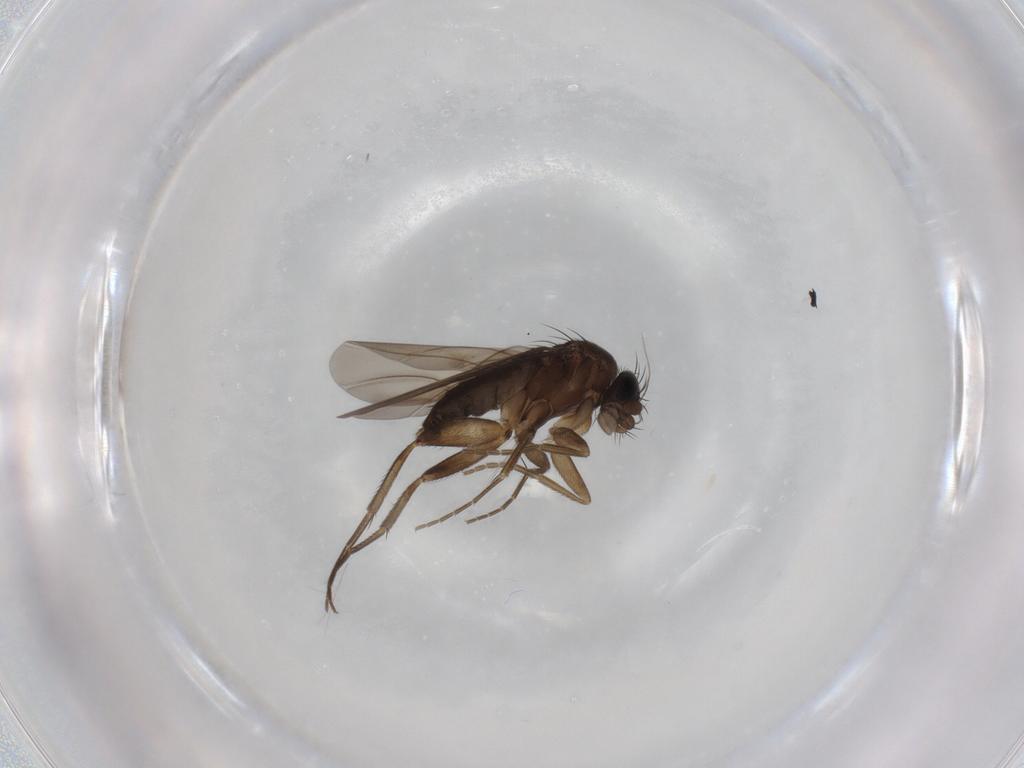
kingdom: Animalia
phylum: Arthropoda
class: Insecta
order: Diptera
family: Phoridae
